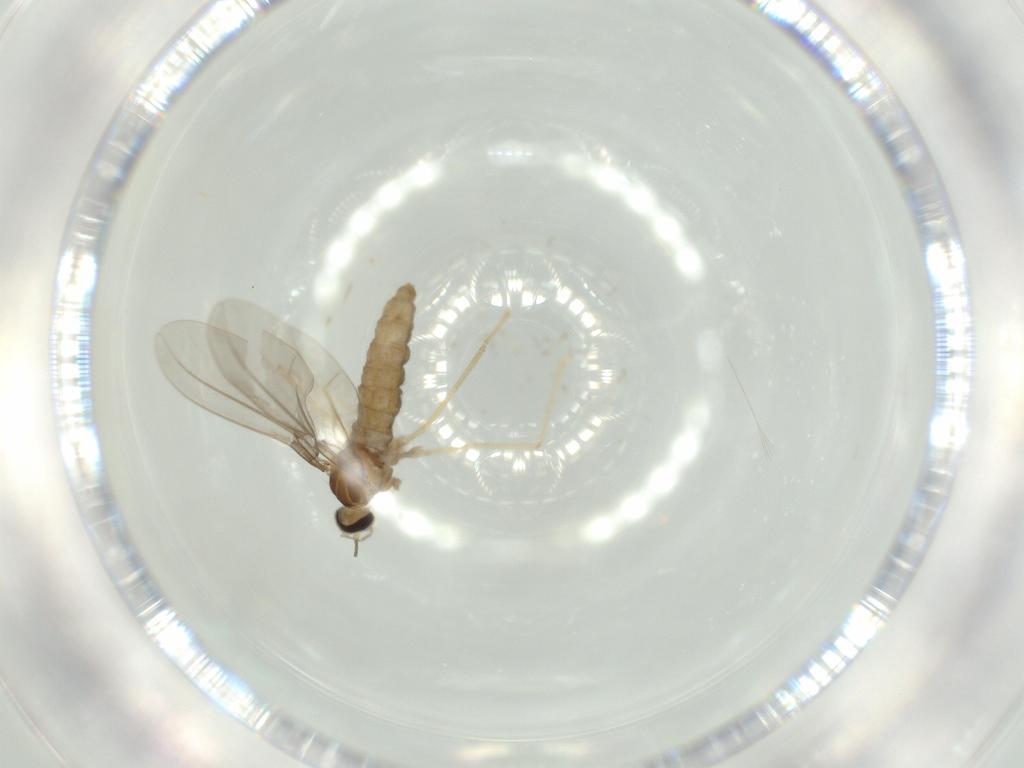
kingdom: Animalia
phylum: Arthropoda
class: Insecta
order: Diptera
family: Cecidomyiidae
